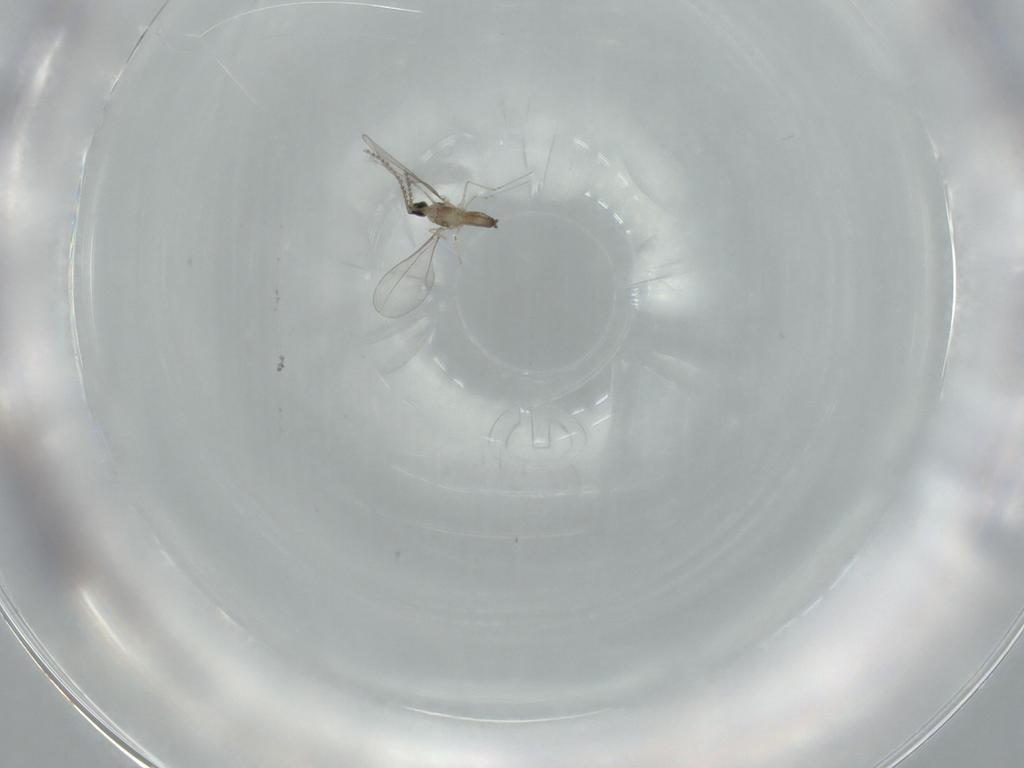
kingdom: Animalia
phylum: Arthropoda
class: Insecta
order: Diptera
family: Cecidomyiidae
